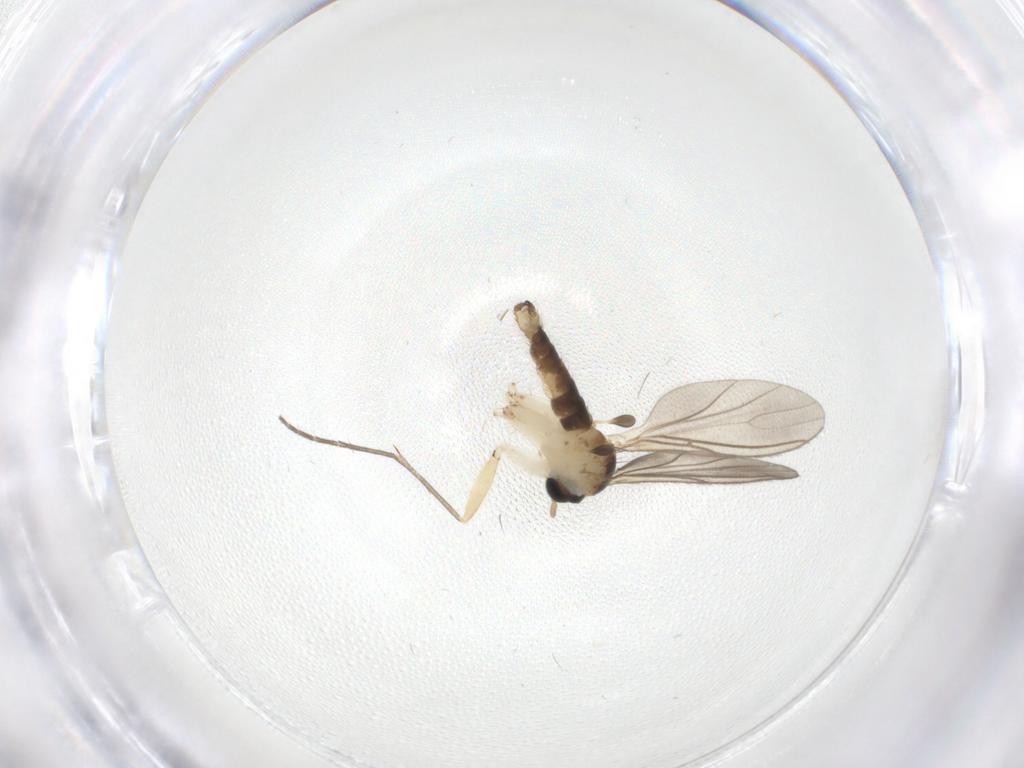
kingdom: Animalia
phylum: Arthropoda
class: Insecta
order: Diptera
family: Sciaridae
